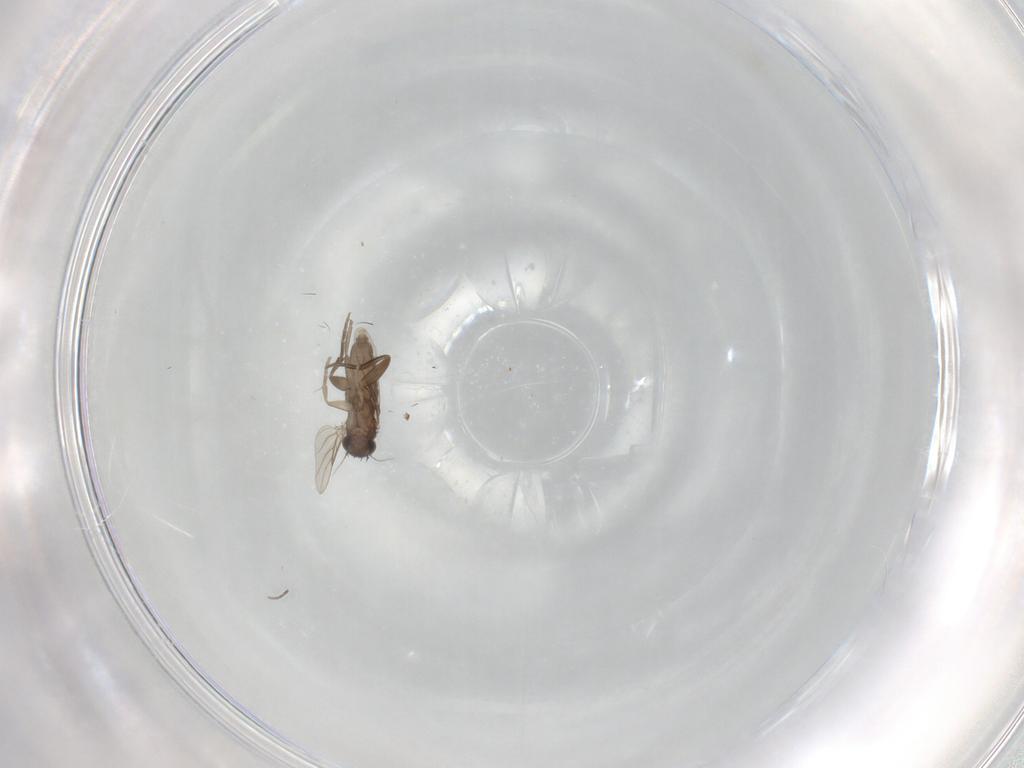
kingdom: Animalia
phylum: Arthropoda
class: Insecta
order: Diptera
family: Phoridae
